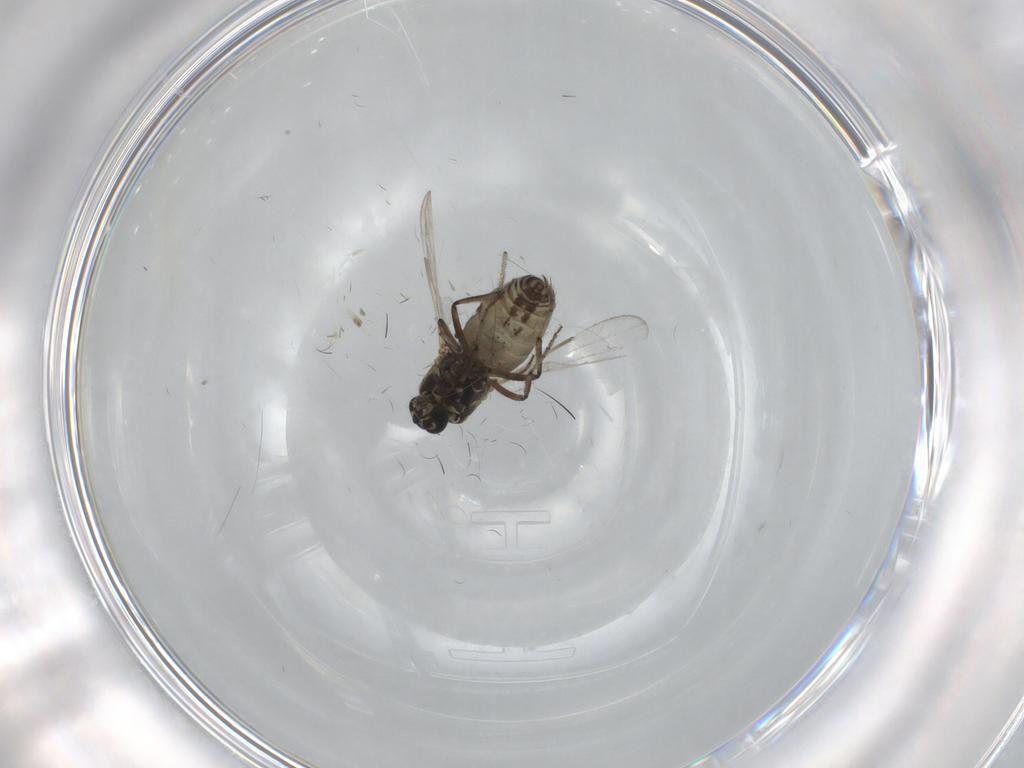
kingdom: Animalia
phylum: Arthropoda
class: Insecta
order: Diptera
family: Chironomidae
